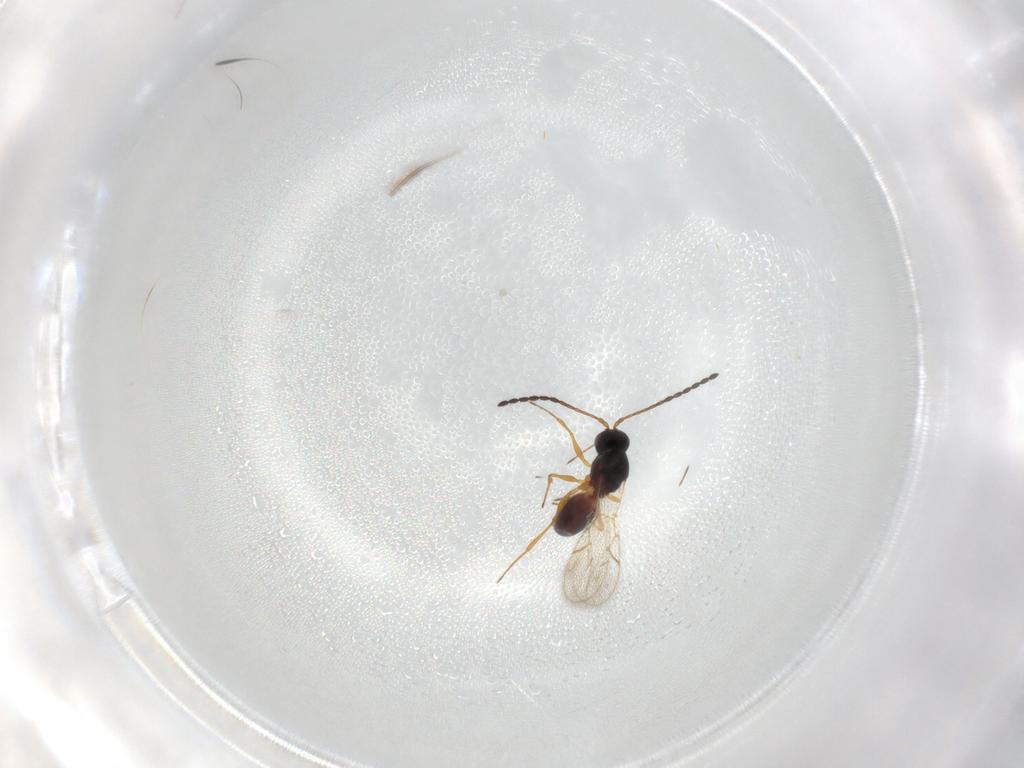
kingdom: Animalia
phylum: Arthropoda
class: Insecta
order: Hymenoptera
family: Figitidae
